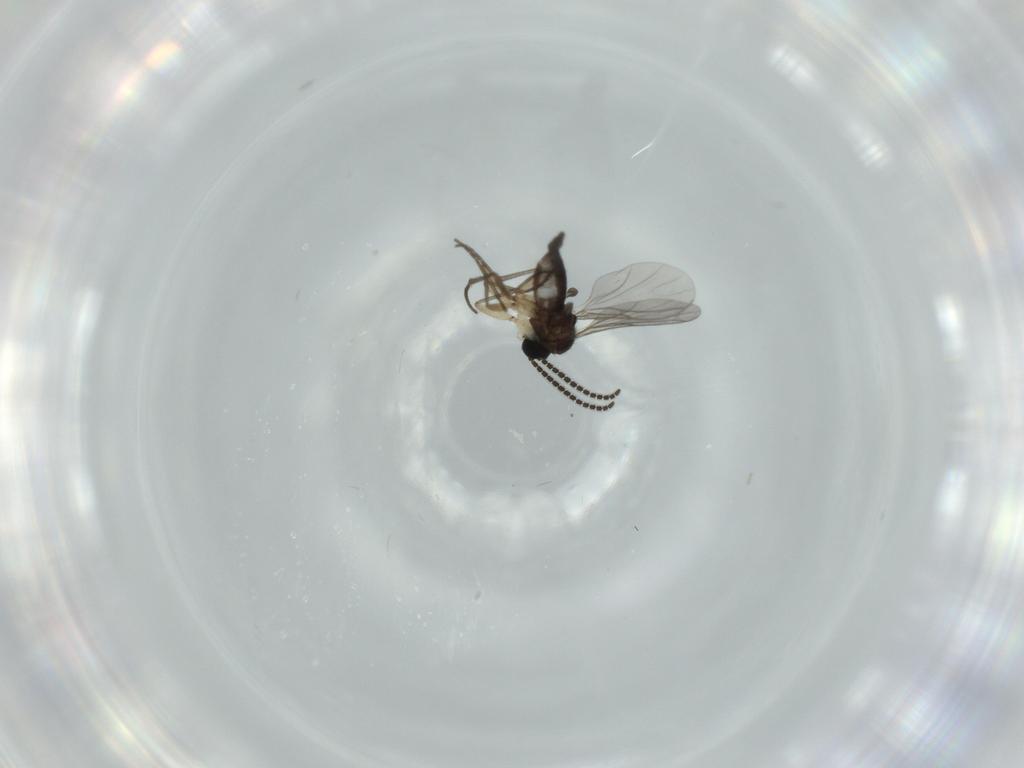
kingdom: Animalia
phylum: Arthropoda
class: Insecta
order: Diptera
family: Sciaridae
